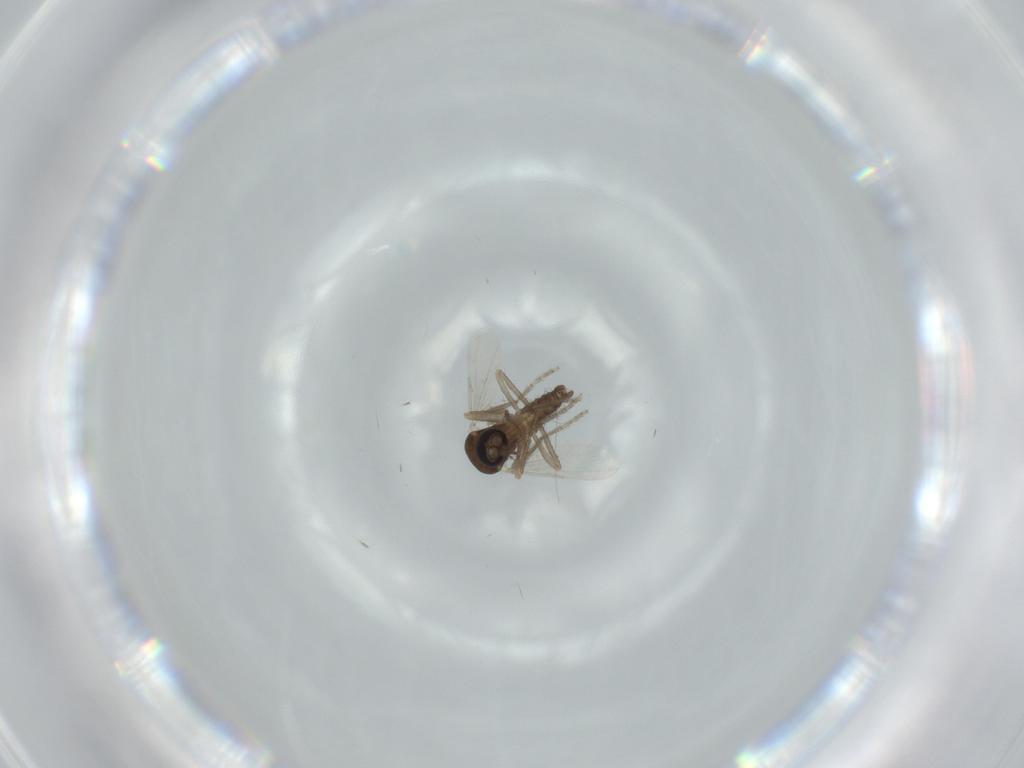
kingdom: Animalia
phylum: Arthropoda
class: Insecta
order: Diptera
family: Ceratopogonidae
